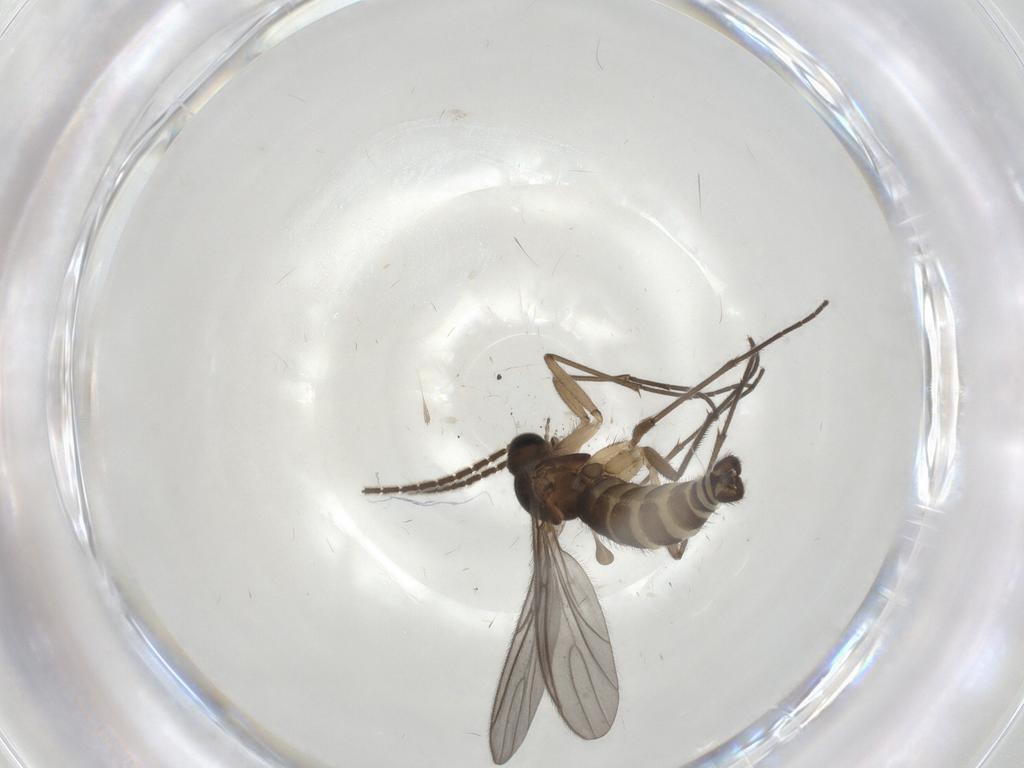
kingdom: Animalia
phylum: Arthropoda
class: Insecta
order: Diptera
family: Sciaridae
